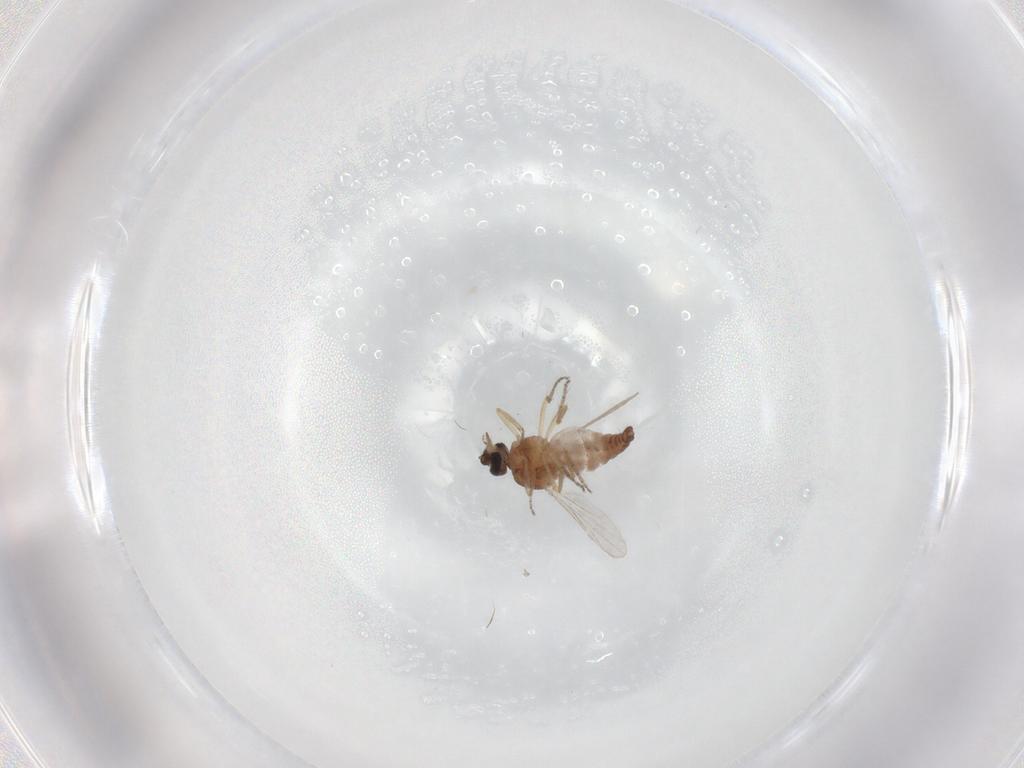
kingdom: Animalia
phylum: Arthropoda
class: Insecta
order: Diptera
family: Ceratopogonidae
